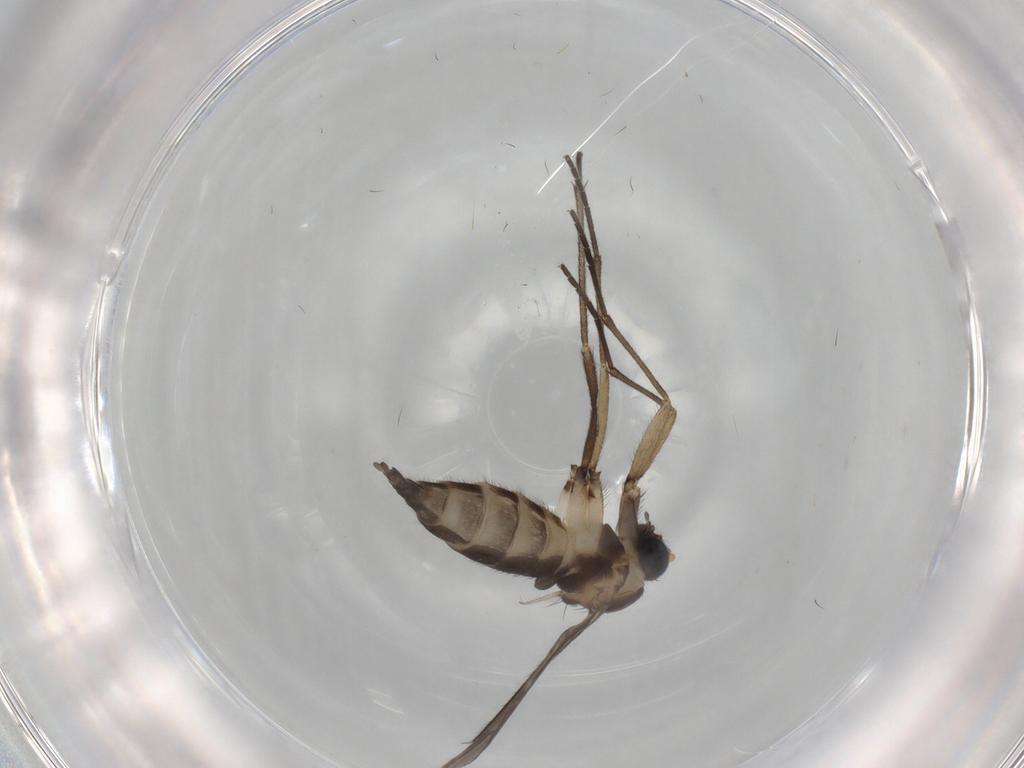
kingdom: Animalia
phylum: Arthropoda
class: Insecta
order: Diptera
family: Sciaridae
